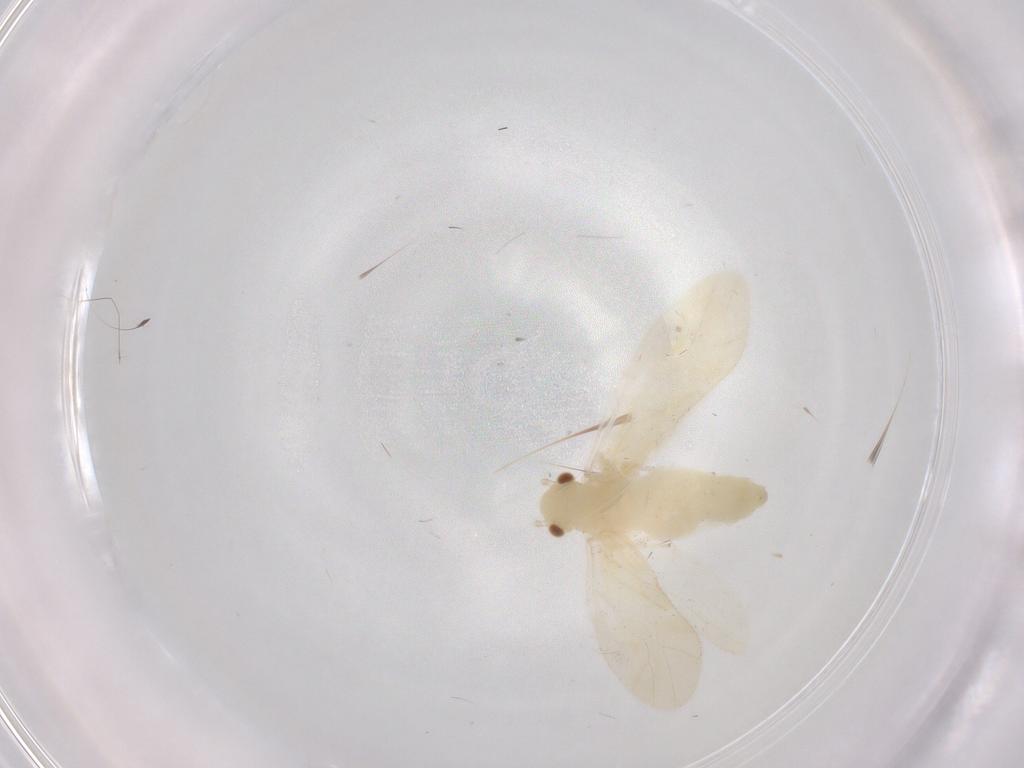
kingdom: Animalia
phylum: Arthropoda
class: Insecta
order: Psocodea
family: Caeciliusidae
